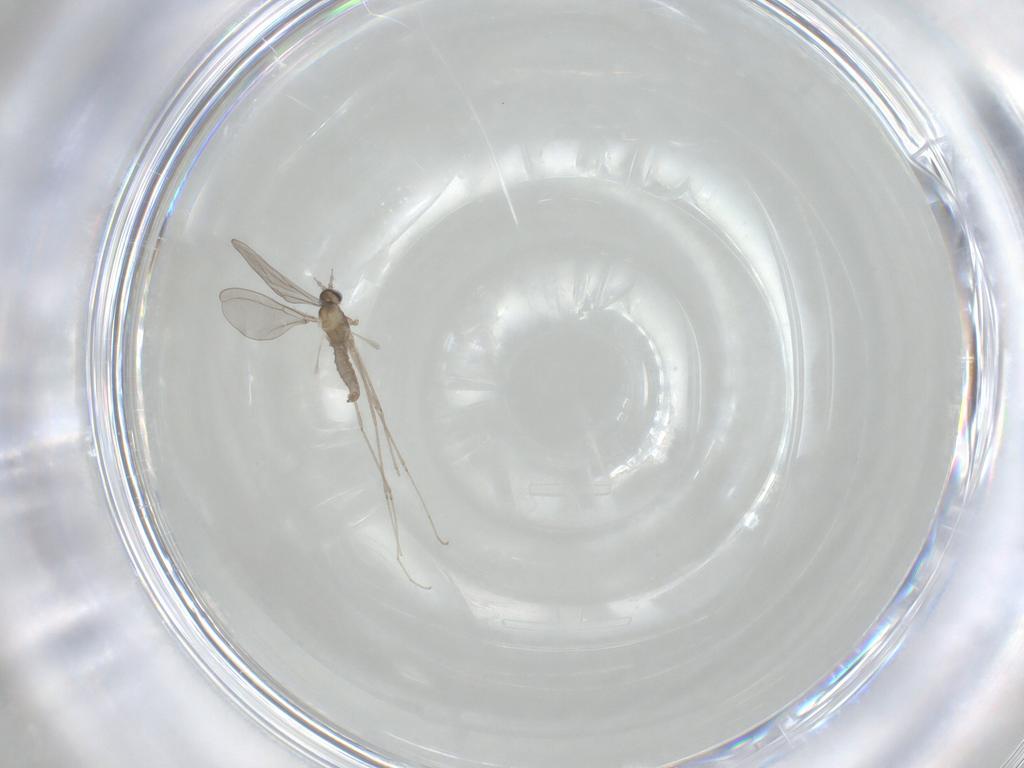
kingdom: Animalia
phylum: Arthropoda
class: Insecta
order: Diptera
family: Cecidomyiidae
